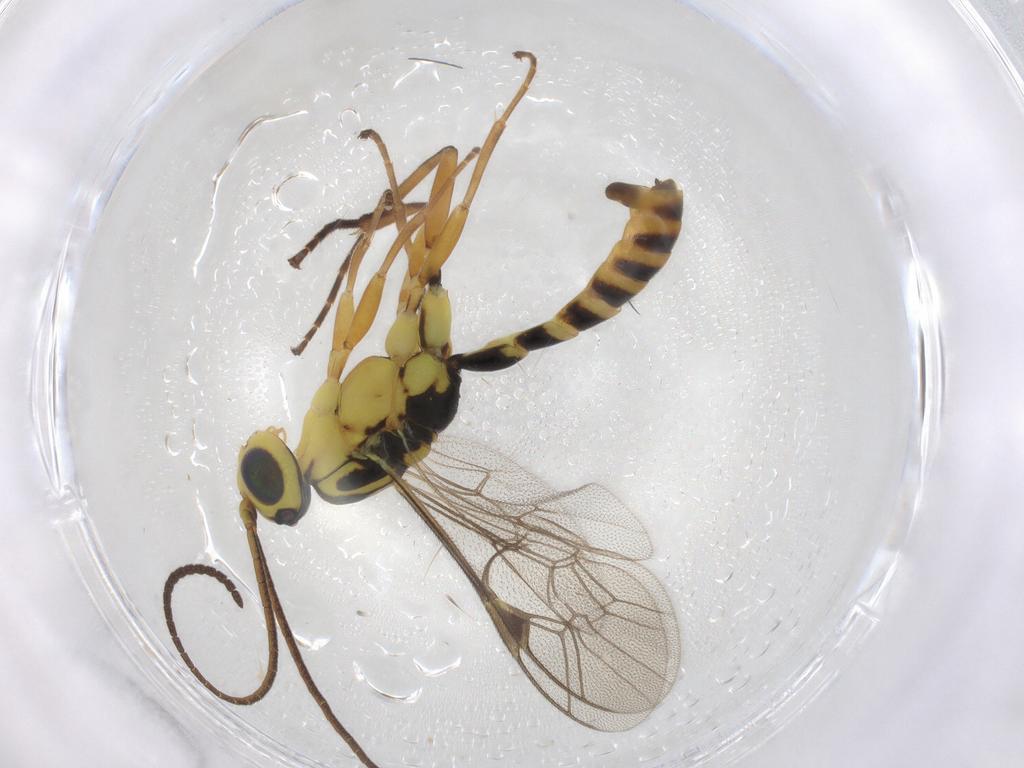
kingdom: Animalia
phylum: Arthropoda
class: Insecta
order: Hymenoptera
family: Ichneumonidae
